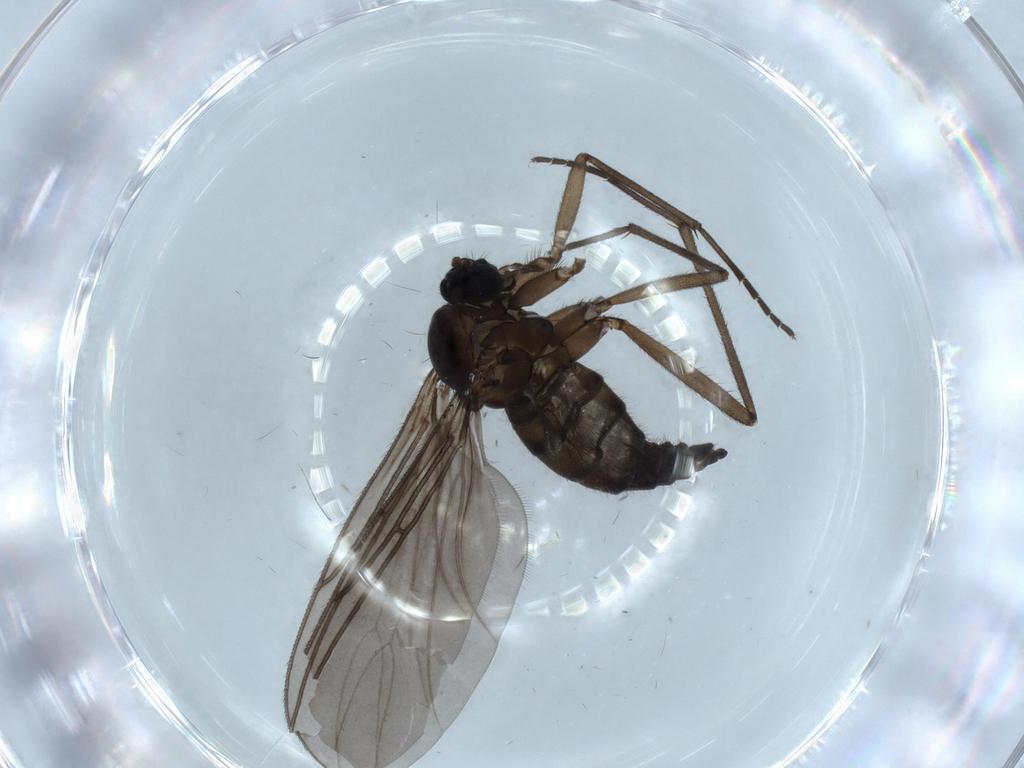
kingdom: Animalia
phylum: Arthropoda
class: Insecta
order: Diptera
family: Sciaridae
